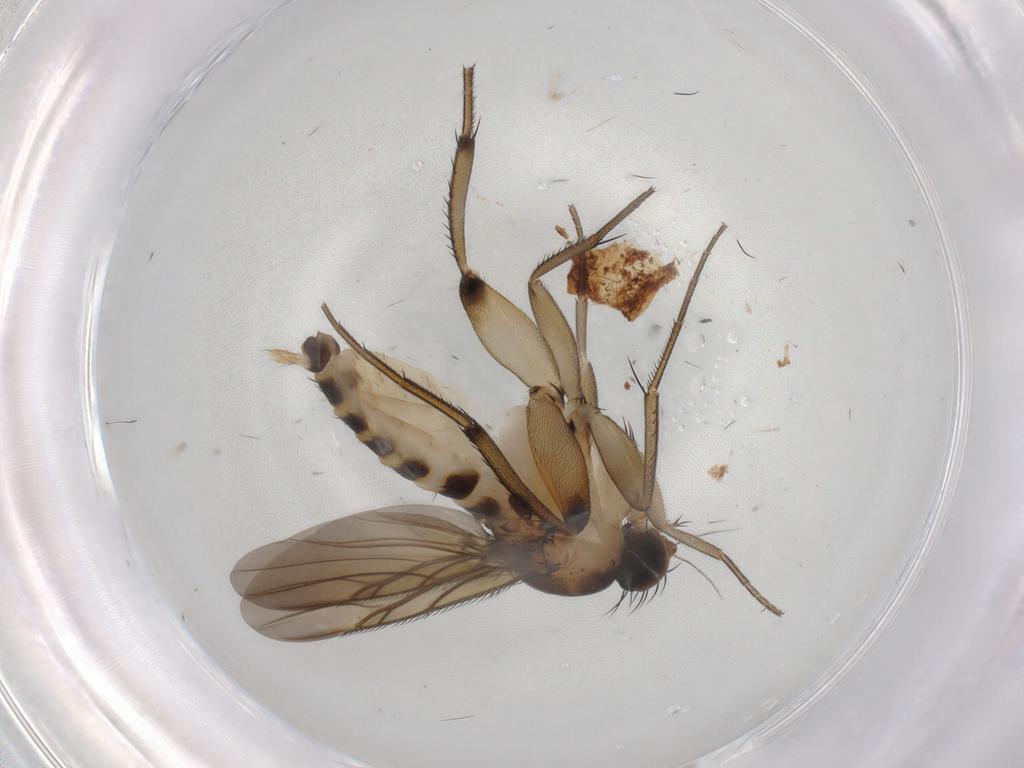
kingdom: Animalia
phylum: Arthropoda
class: Insecta
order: Diptera
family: Phoridae
